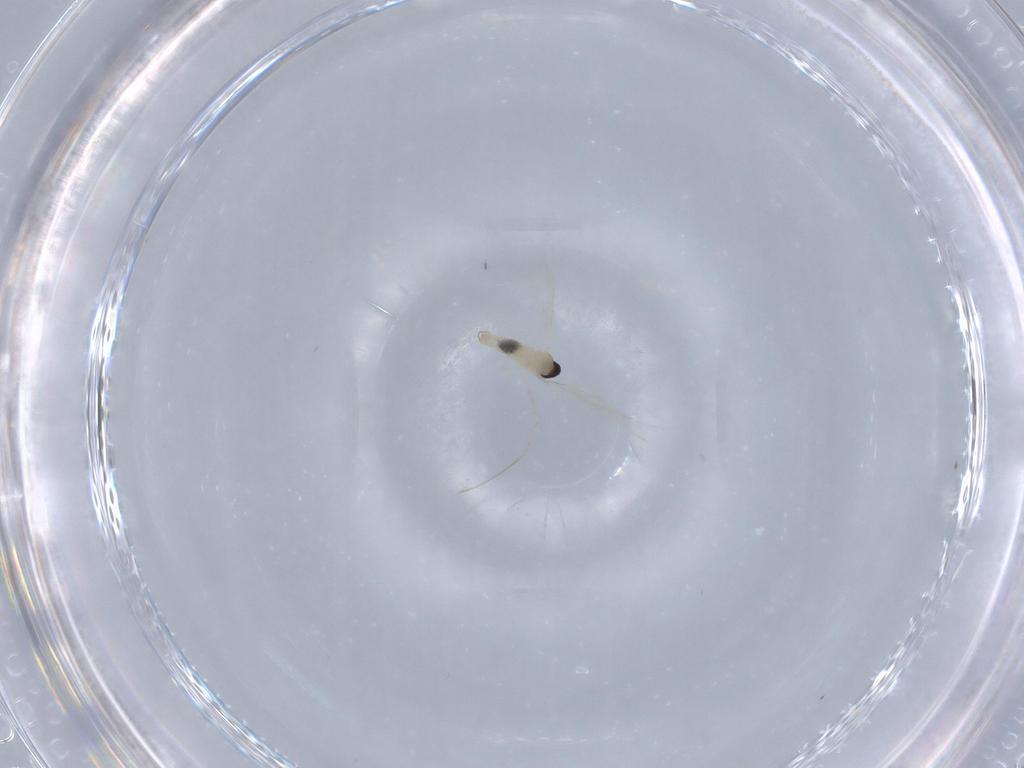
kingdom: Animalia
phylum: Arthropoda
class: Insecta
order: Diptera
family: Cecidomyiidae
